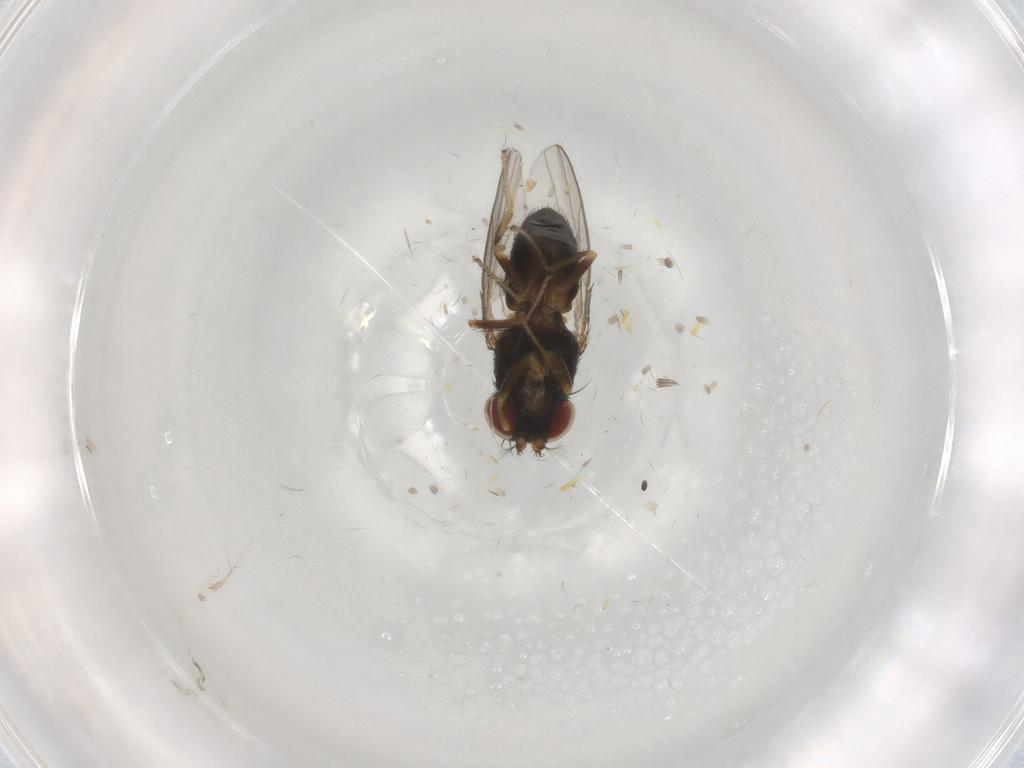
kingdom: Animalia
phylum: Arthropoda
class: Insecta
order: Diptera
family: Ephydridae
